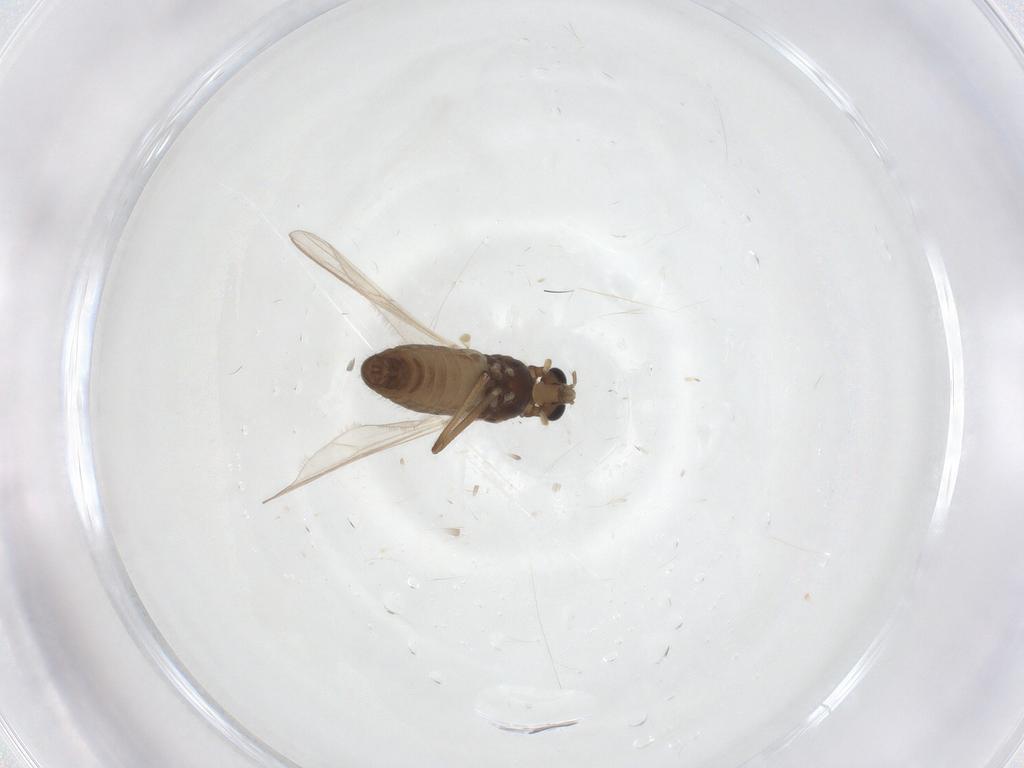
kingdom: Animalia
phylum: Arthropoda
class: Insecta
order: Diptera
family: Chironomidae
